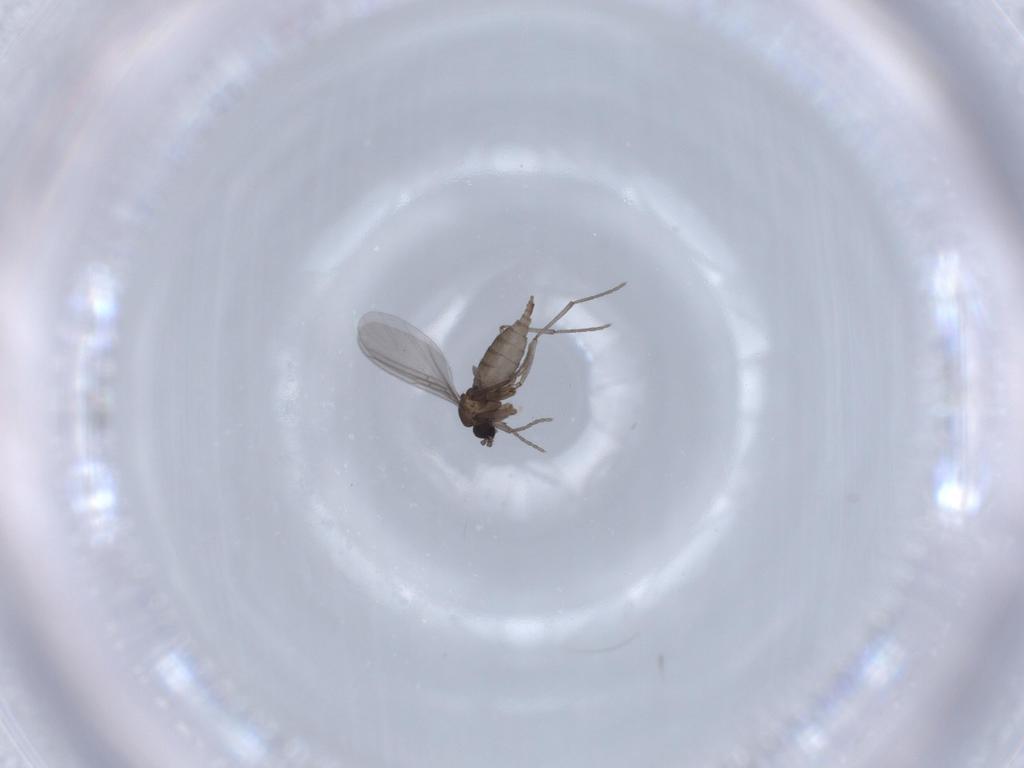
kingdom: Animalia
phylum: Arthropoda
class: Insecta
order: Diptera
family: Sciaridae
